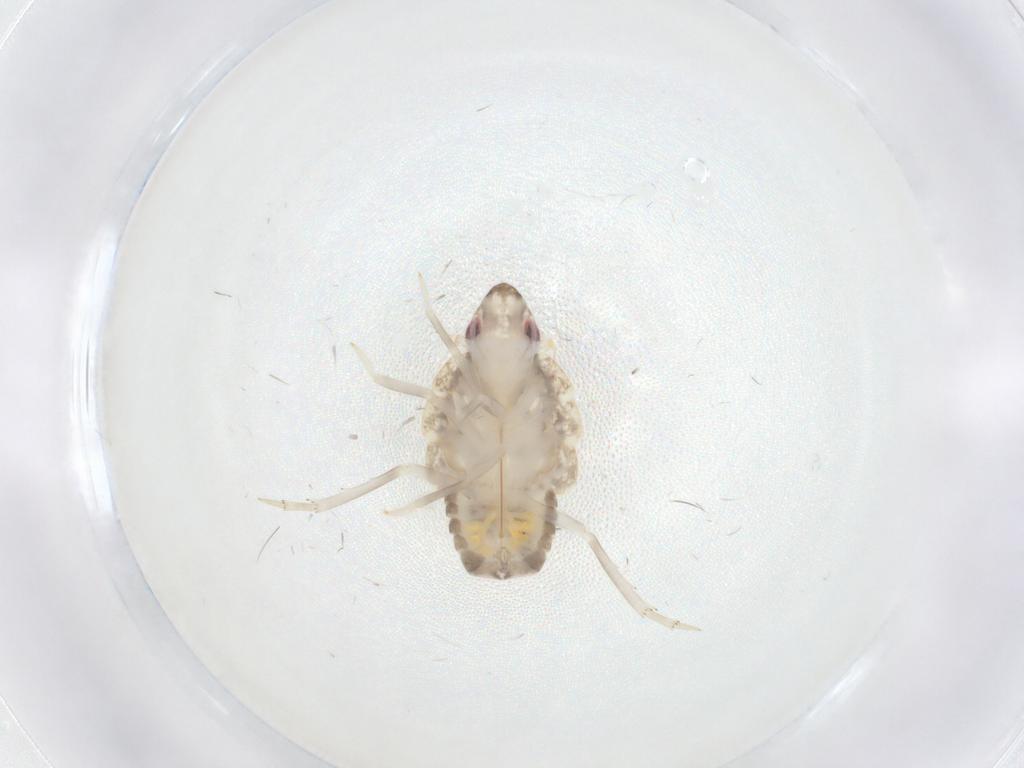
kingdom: Animalia
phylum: Arthropoda
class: Insecta
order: Hemiptera
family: Fulgoroidea_incertae_sedis
